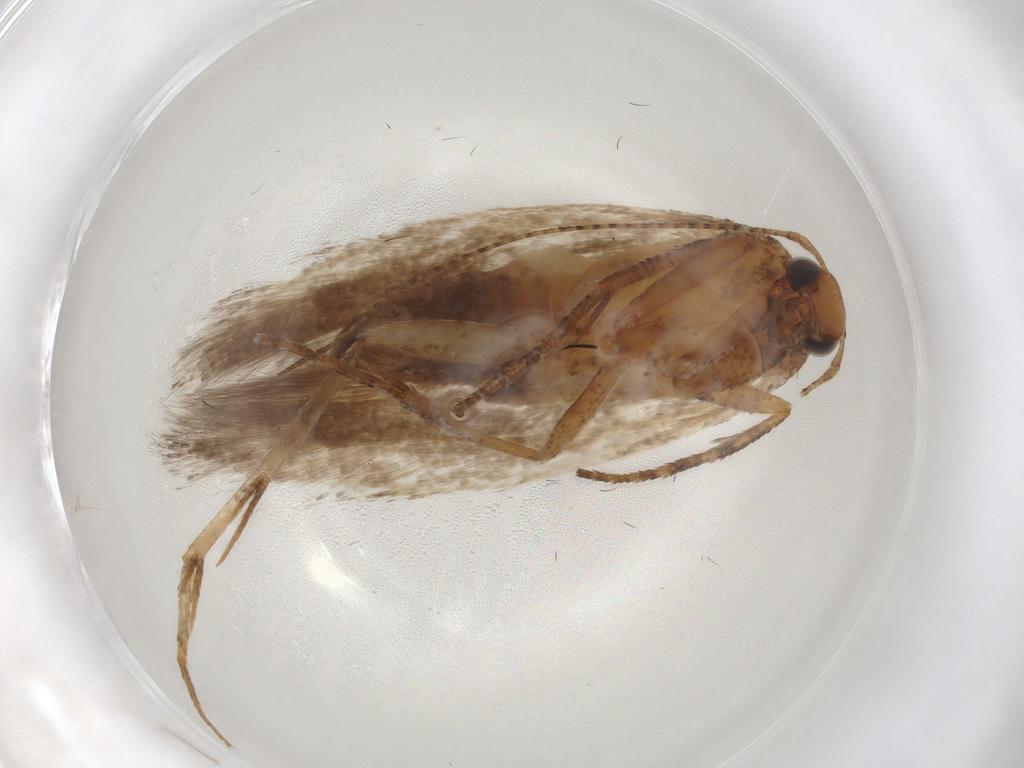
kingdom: Animalia
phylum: Arthropoda
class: Insecta
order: Lepidoptera
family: Gelechiidae
